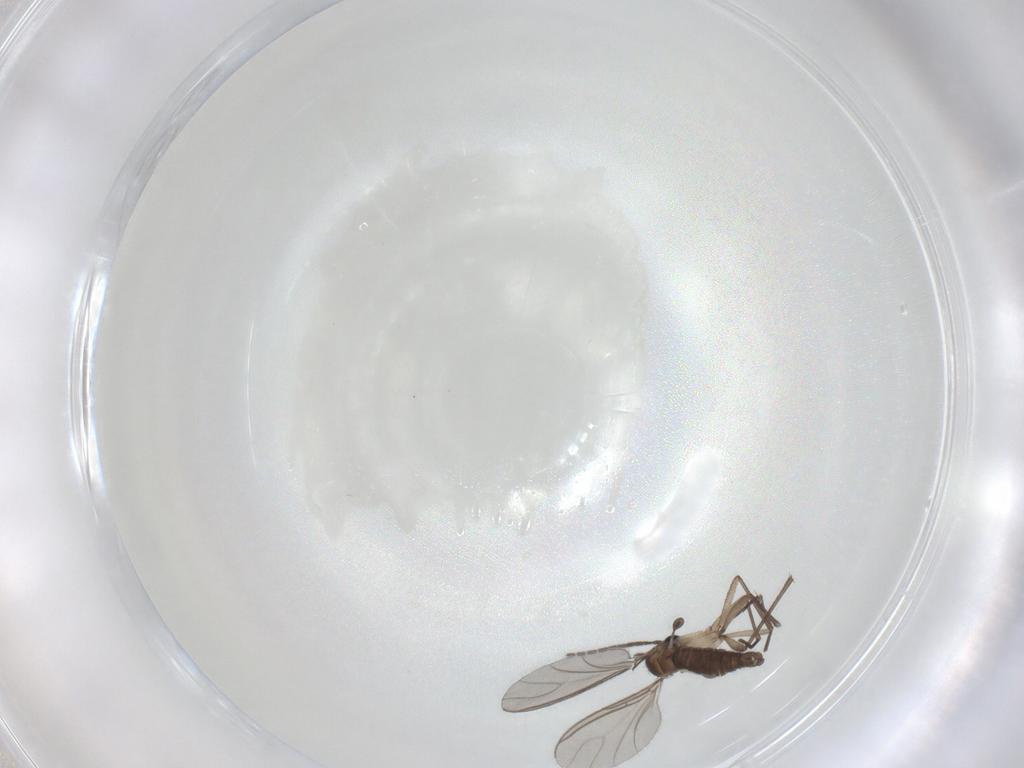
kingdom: Animalia
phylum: Arthropoda
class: Insecta
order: Diptera
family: Sciaridae
